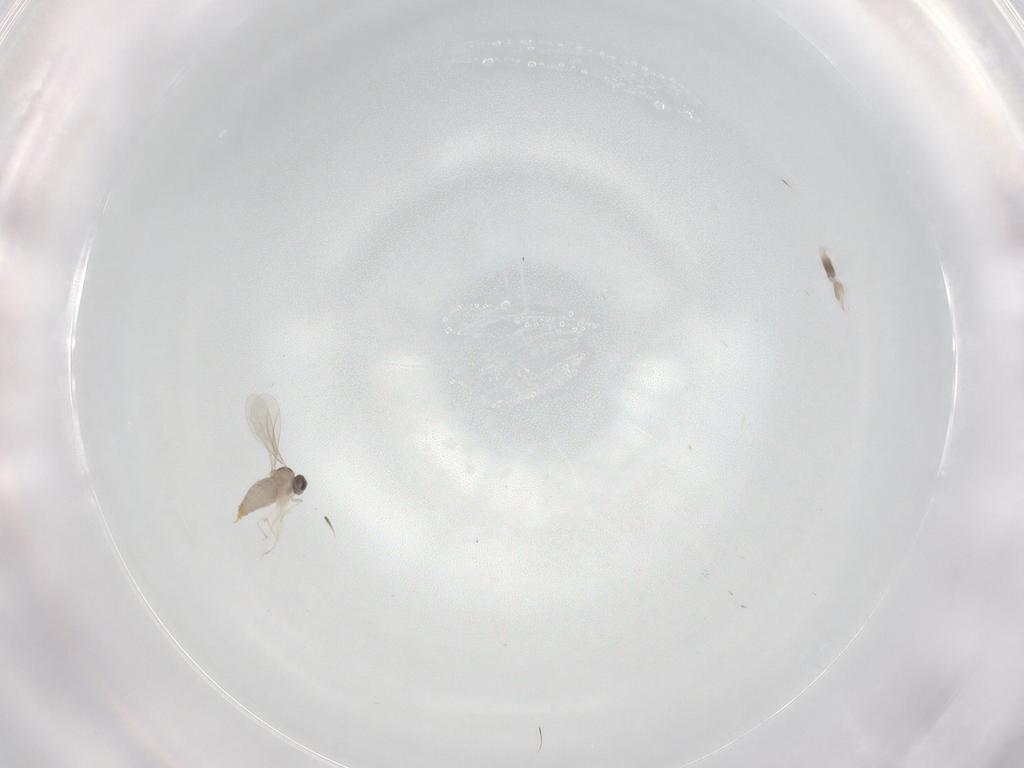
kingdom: Animalia
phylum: Arthropoda
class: Insecta
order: Diptera
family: Cecidomyiidae
